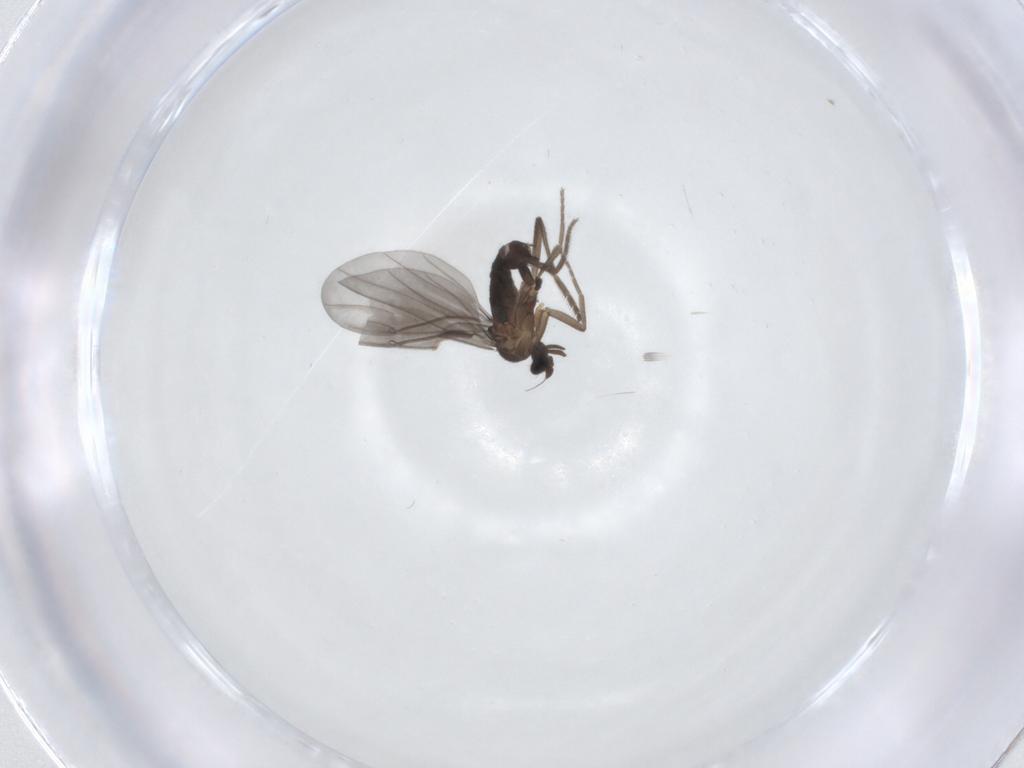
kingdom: Animalia
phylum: Arthropoda
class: Insecta
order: Diptera
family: Phoridae
